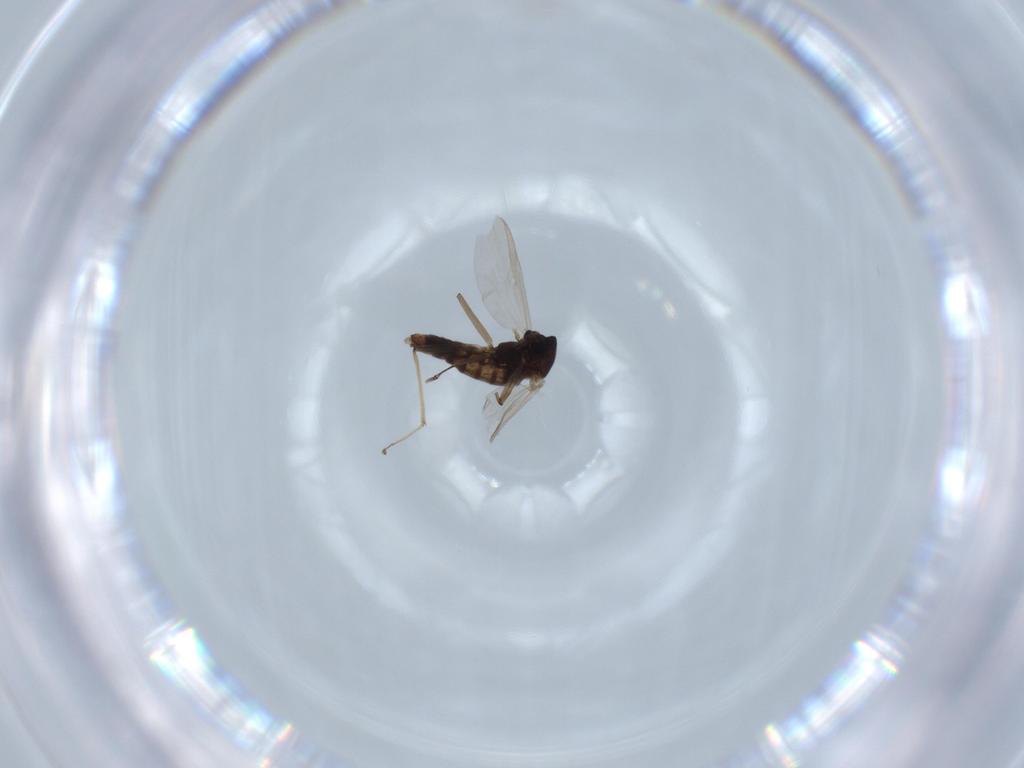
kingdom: Animalia
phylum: Arthropoda
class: Insecta
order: Diptera
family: Chironomidae
